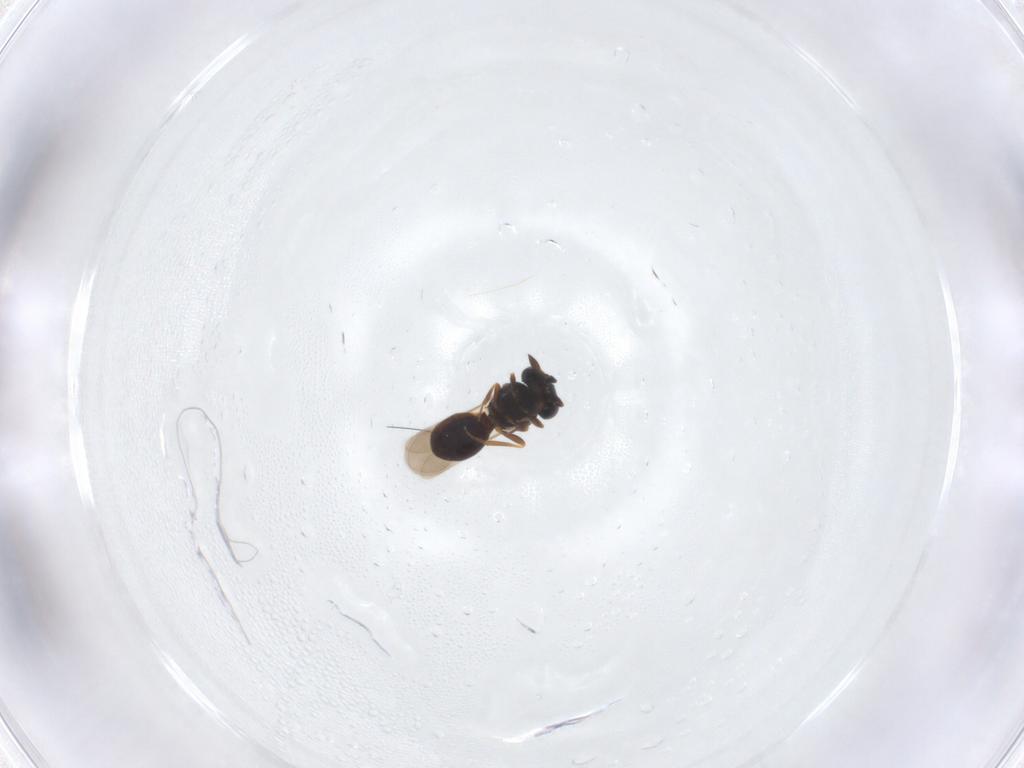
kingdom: Animalia
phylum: Arthropoda
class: Insecta
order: Hymenoptera
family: Scelionidae
